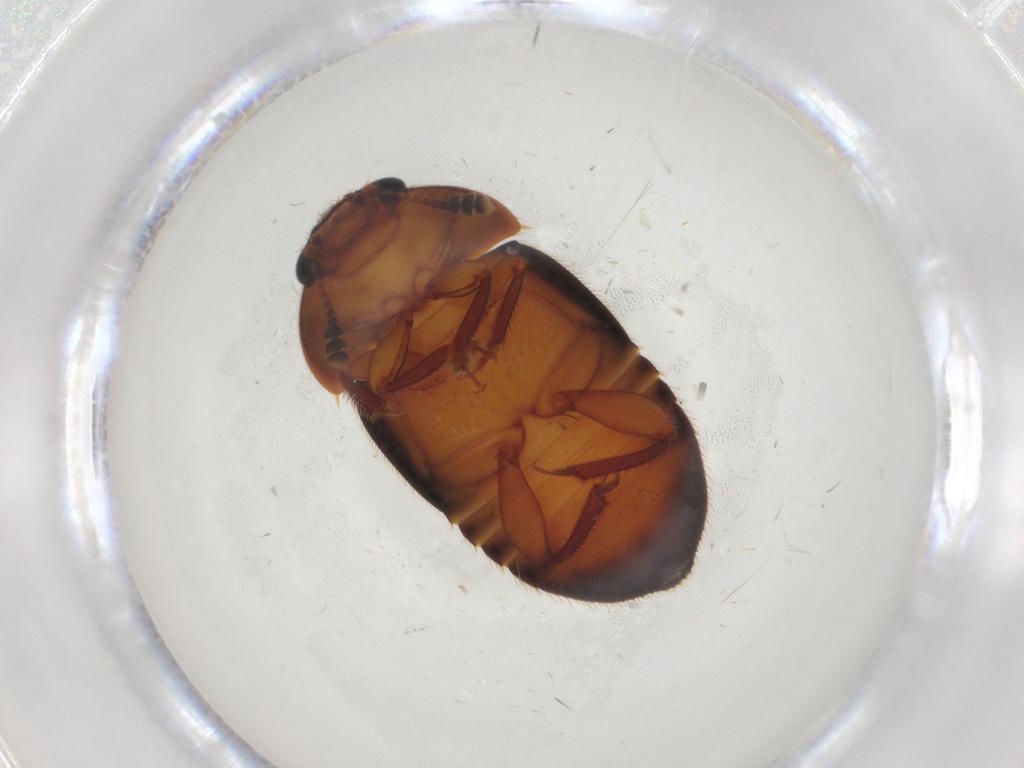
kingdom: Animalia
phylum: Arthropoda
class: Insecta
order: Coleoptera
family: Nitidulidae
